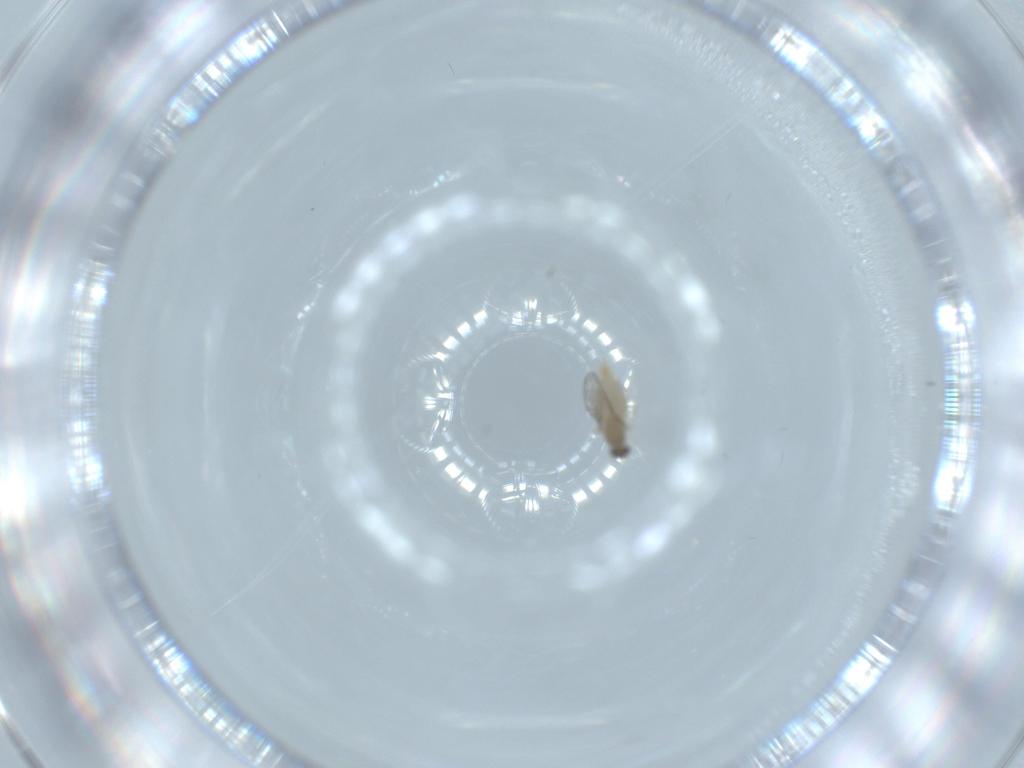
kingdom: Animalia
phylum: Arthropoda
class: Insecta
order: Diptera
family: Cecidomyiidae
